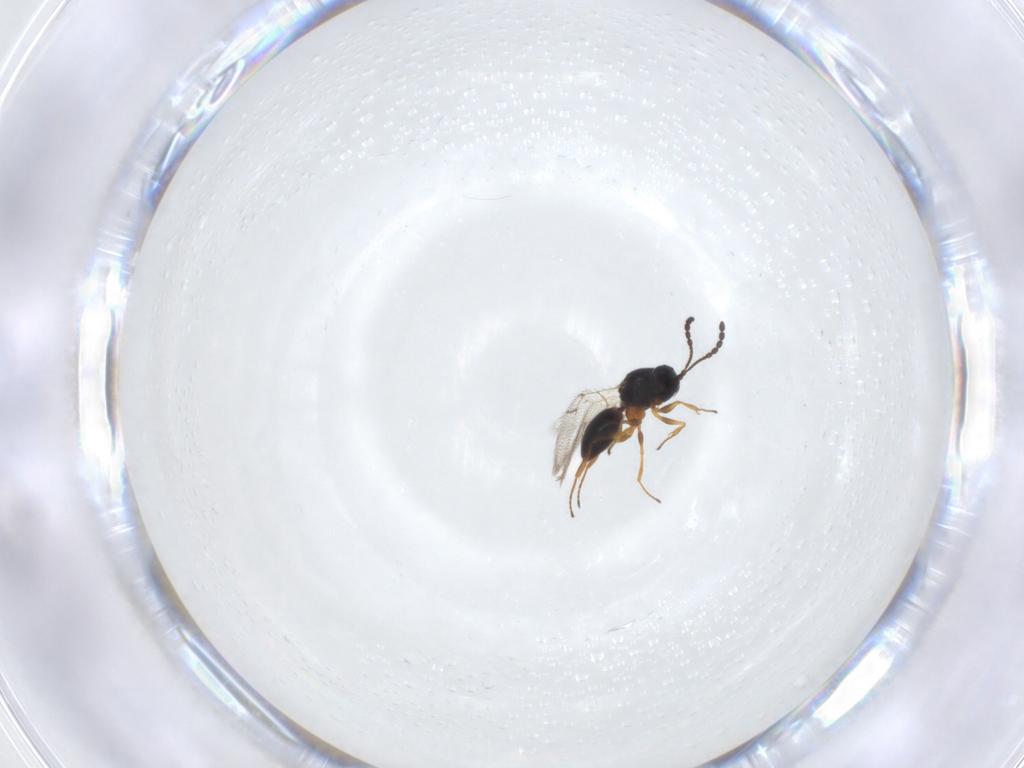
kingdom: Animalia
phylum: Arthropoda
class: Insecta
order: Hymenoptera
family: Figitidae
